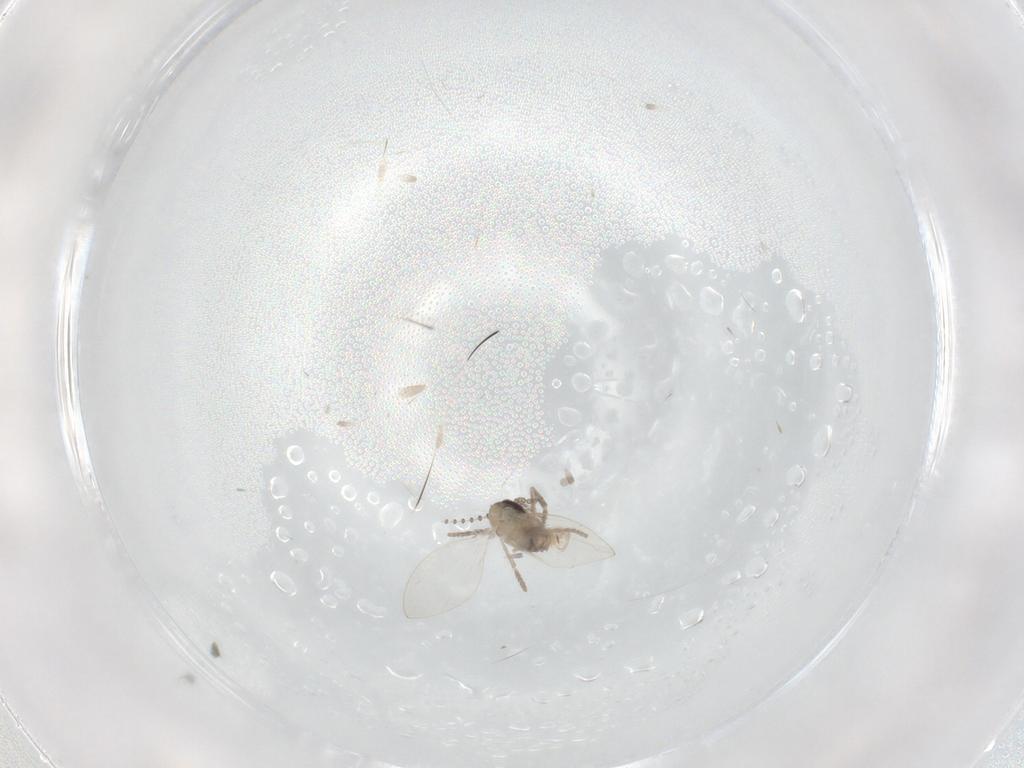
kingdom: Animalia
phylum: Arthropoda
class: Insecta
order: Diptera
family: Psychodidae
